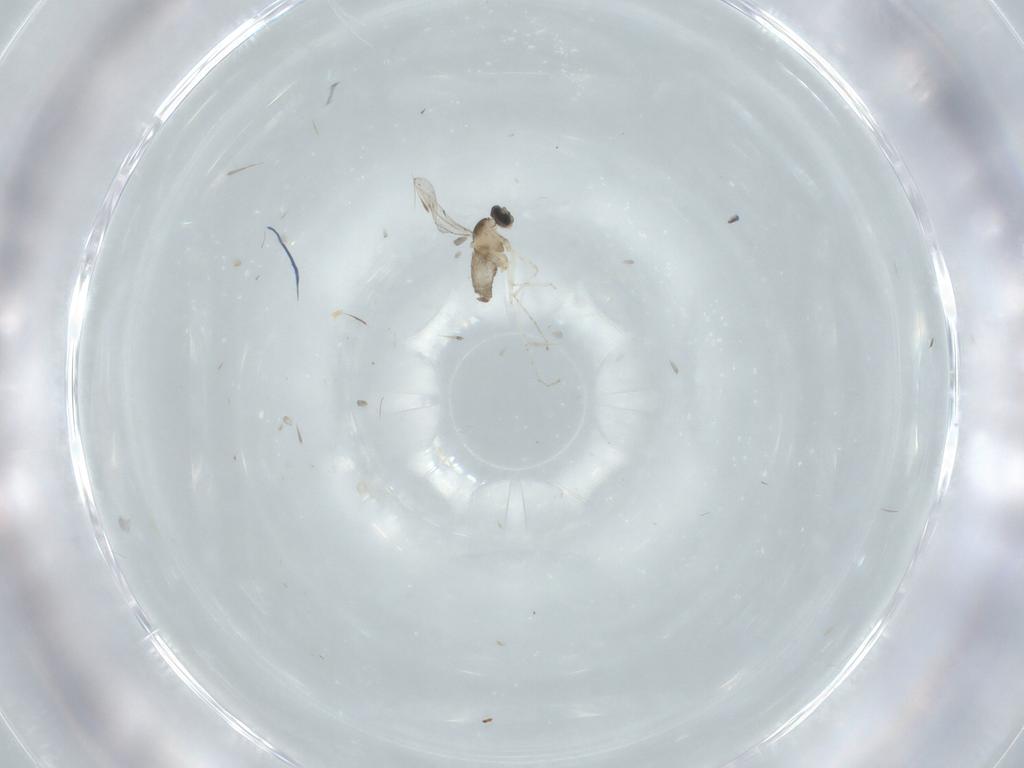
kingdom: Animalia
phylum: Arthropoda
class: Insecta
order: Diptera
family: Cecidomyiidae
